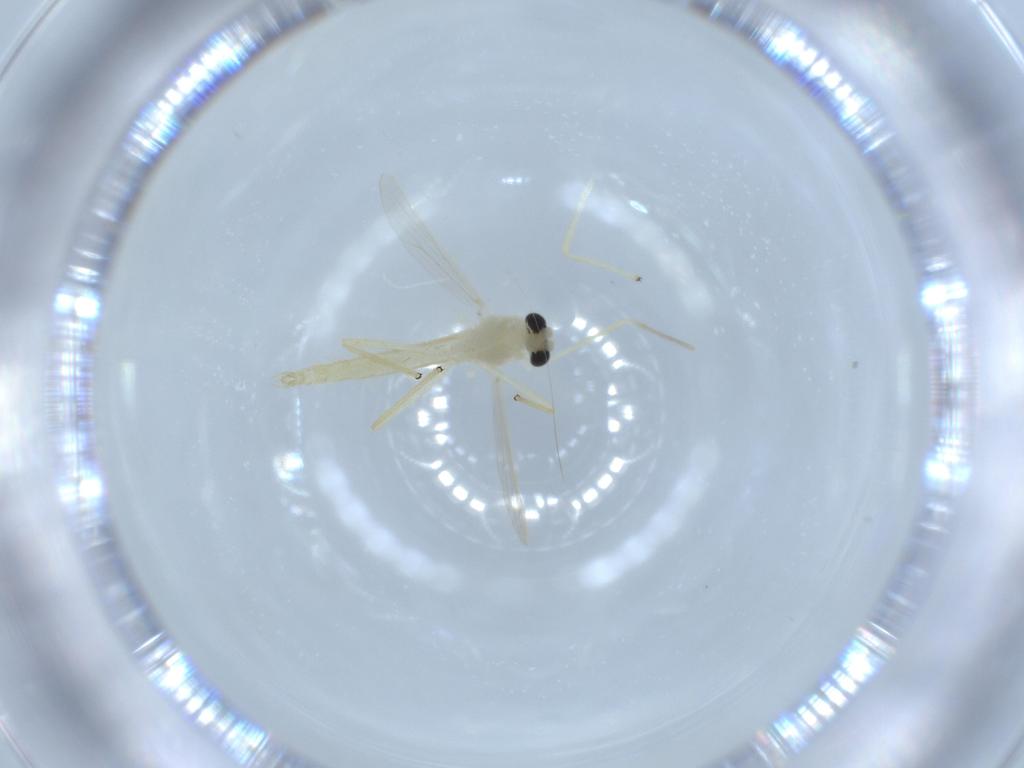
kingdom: Animalia
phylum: Arthropoda
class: Insecta
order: Diptera
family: Chironomidae
